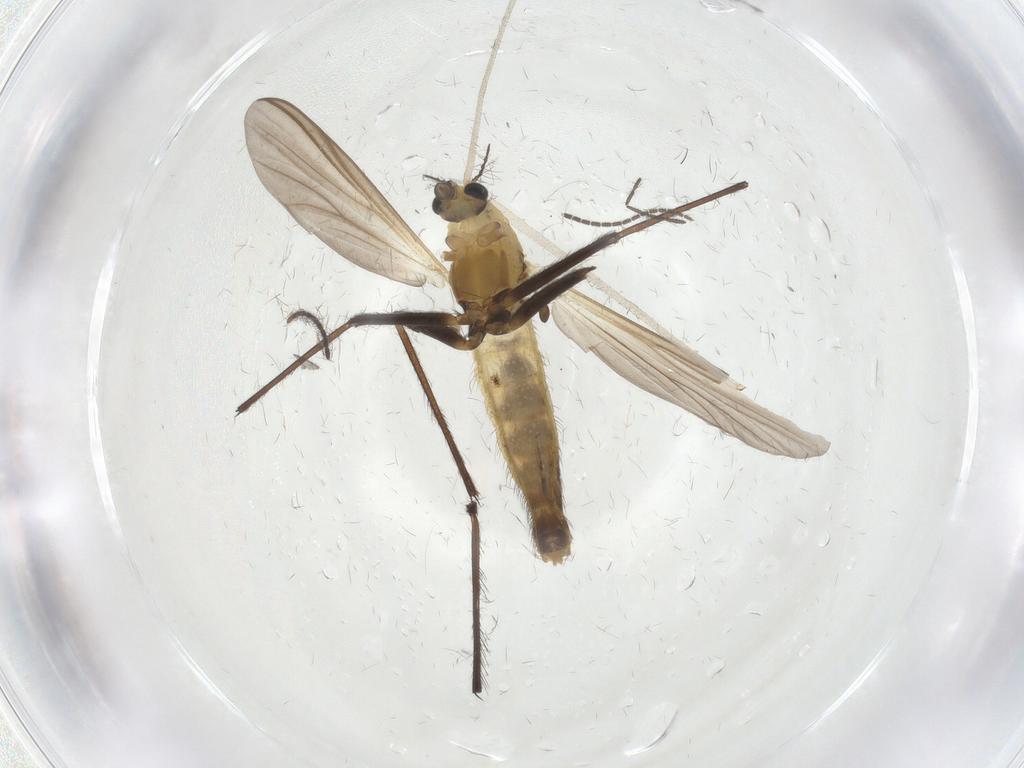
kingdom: Animalia
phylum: Arthropoda
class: Insecta
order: Diptera
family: Chironomidae
